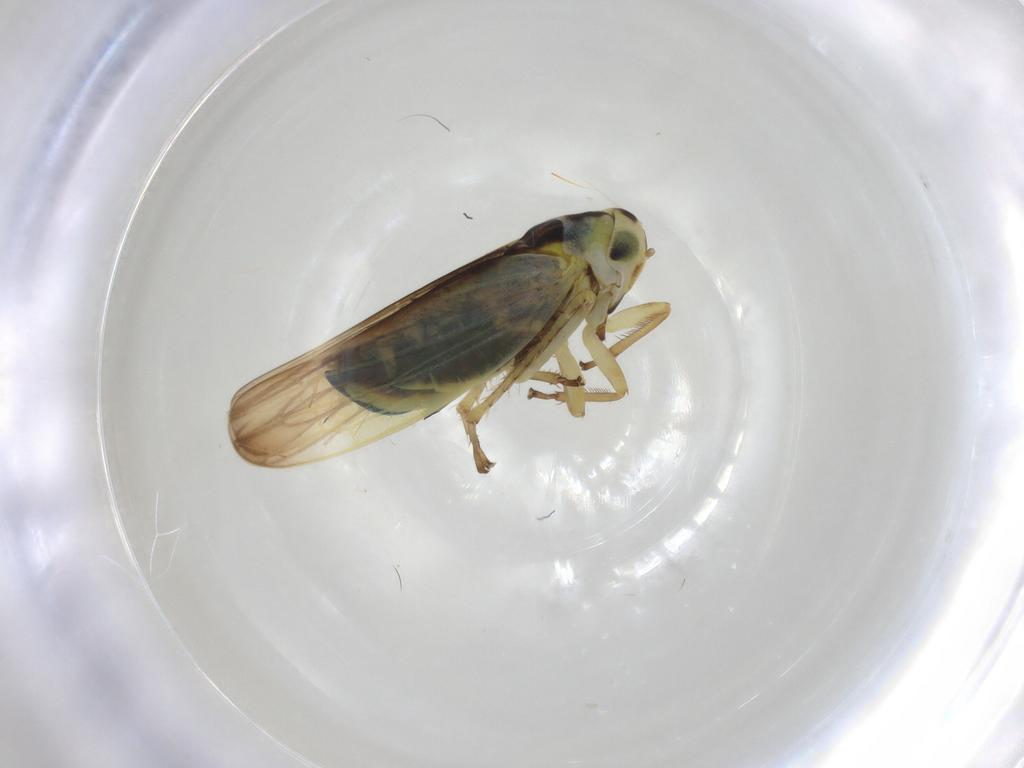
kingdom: Animalia
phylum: Arthropoda
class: Insecta
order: Hemiptera
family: Cicadellidae
